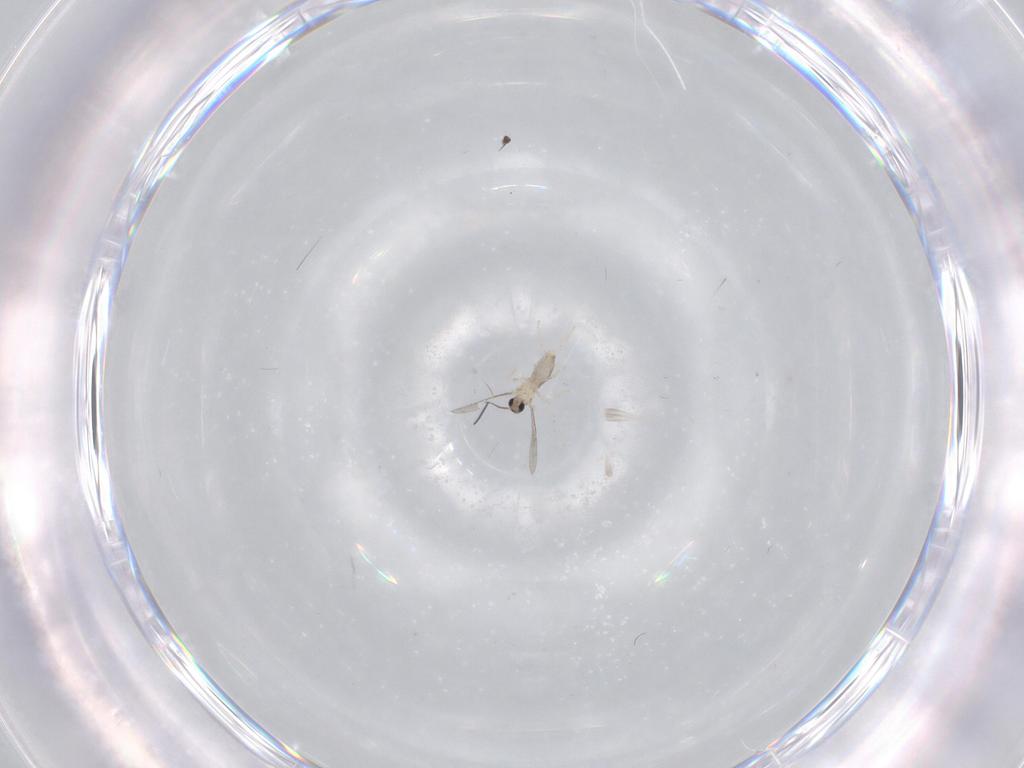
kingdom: Animalia
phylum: Arthropoda
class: Insecta
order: Diptera
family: Cecidomyiidae
